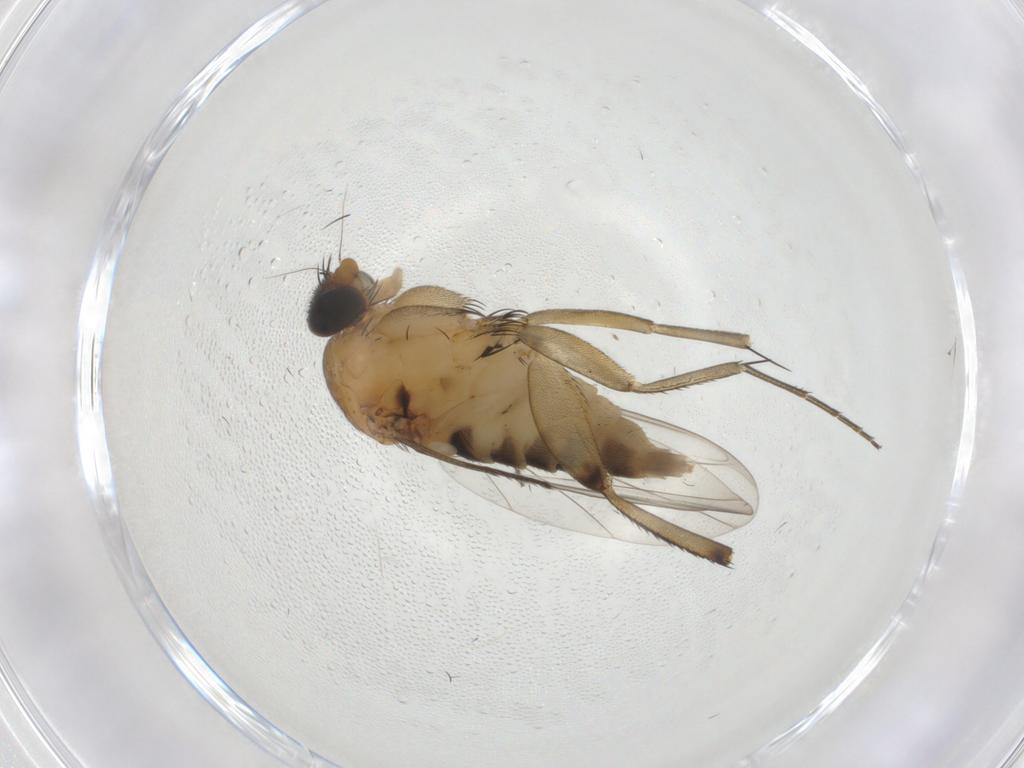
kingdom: Animalia
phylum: Arthropoda
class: Insecta
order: Diptera
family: Phoridae
